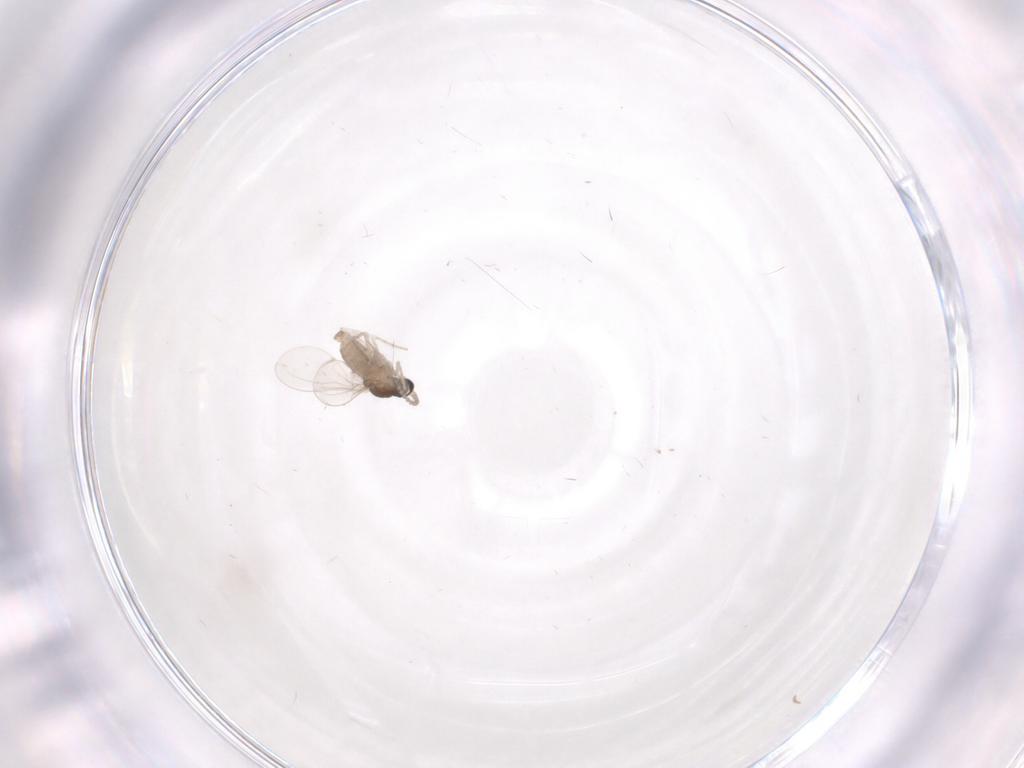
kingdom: Animalia
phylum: Arthropoda
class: Insecta
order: Diptera
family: Cecidomyiidae
